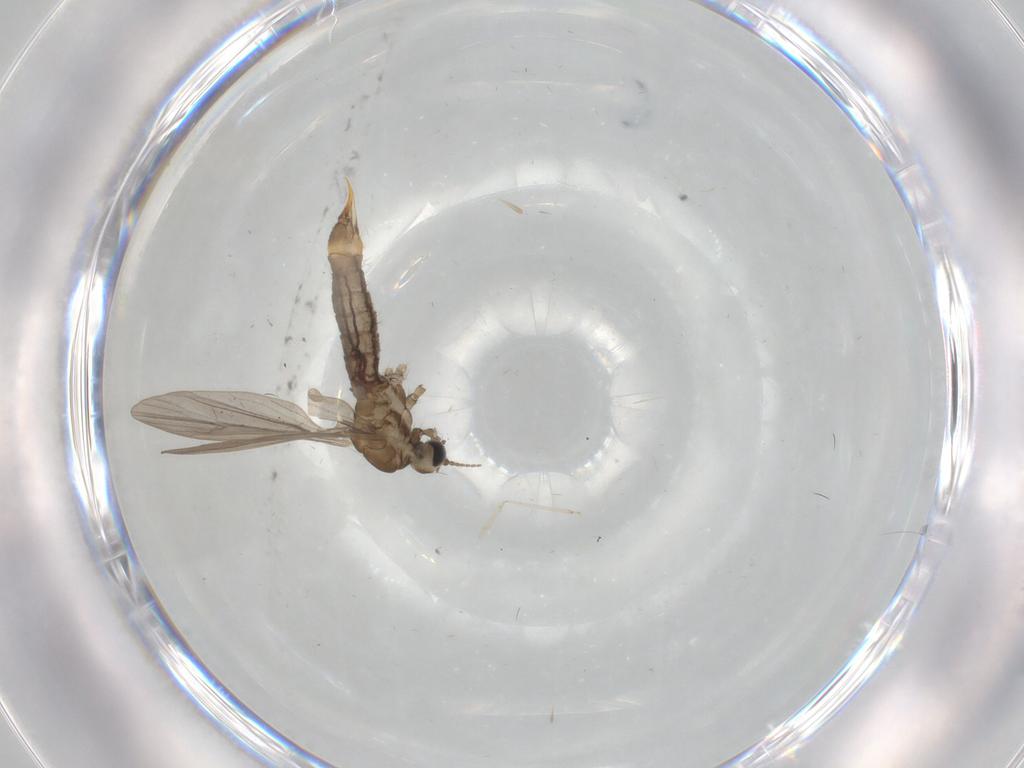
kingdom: Animalia
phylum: Arthropoda
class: Insecta
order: Diptera
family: Limoniidae
